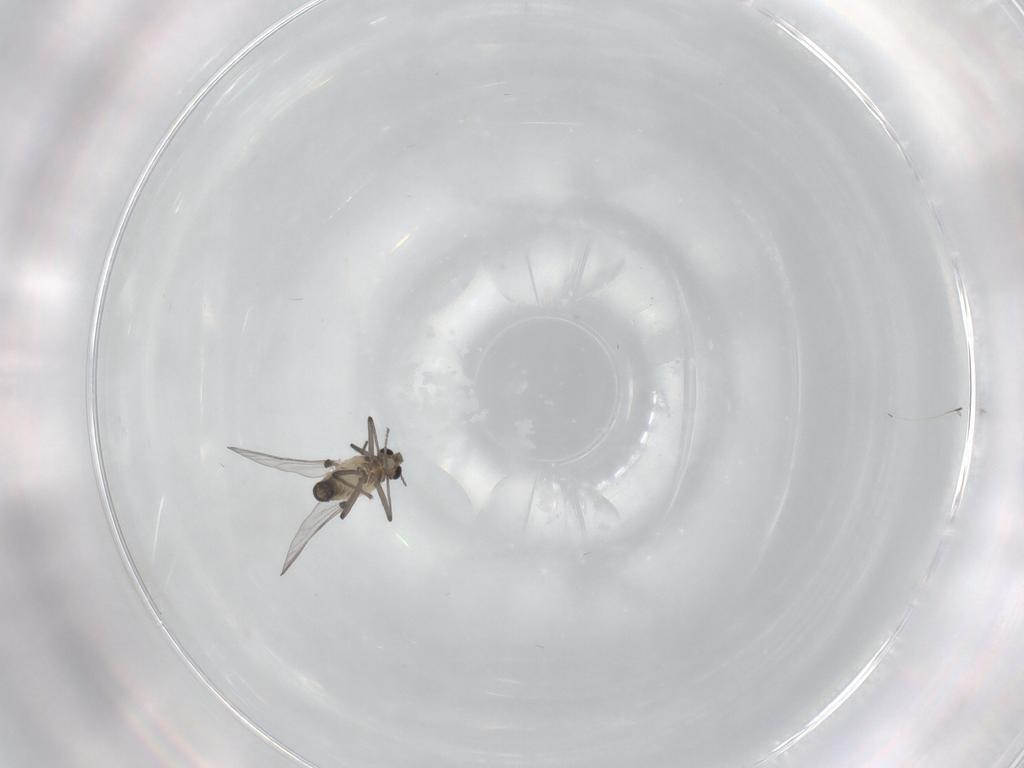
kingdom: Animalia
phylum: Arthropoda
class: Insecta
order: Diptera
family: Chironomidae
